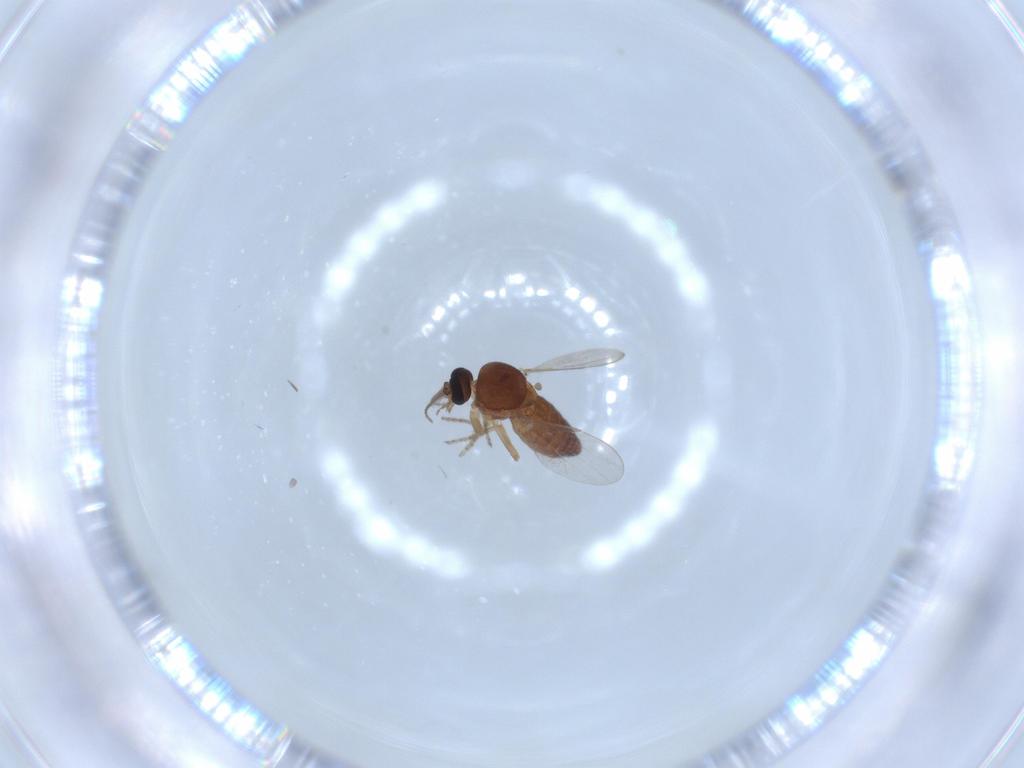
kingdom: Animalia
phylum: Arthropoda
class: Insecta
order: Diptera
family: Ceratopogonidae
